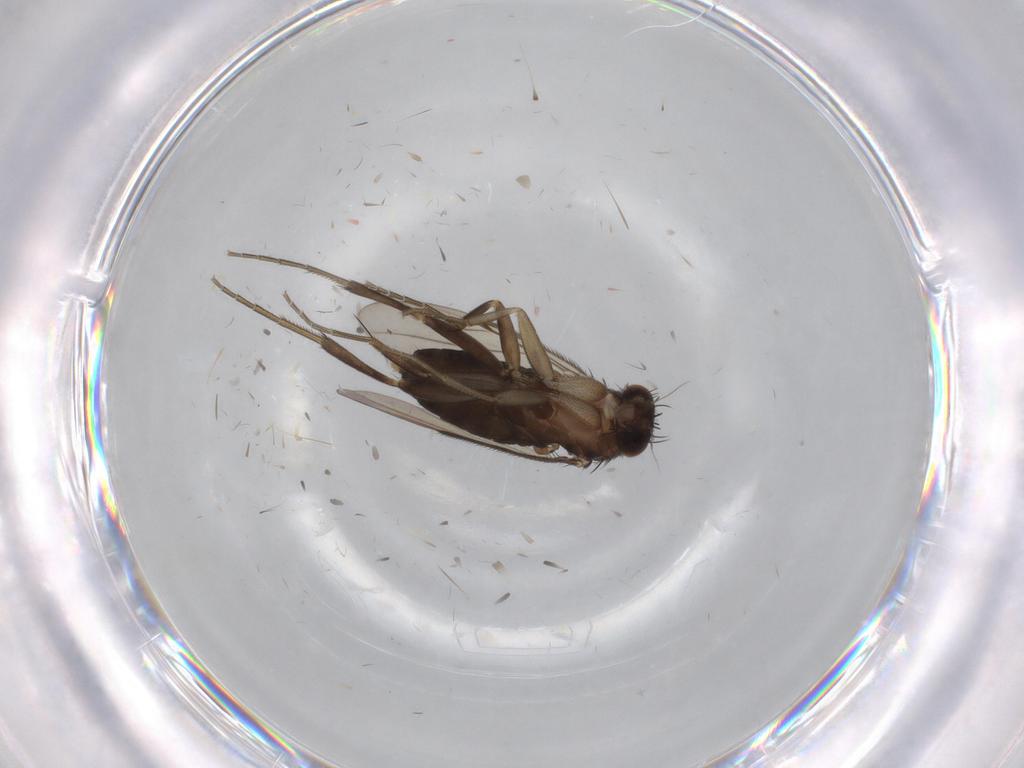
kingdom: Animalia
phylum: Arthropoda
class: Insecta
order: Diptera
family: Phoridae
